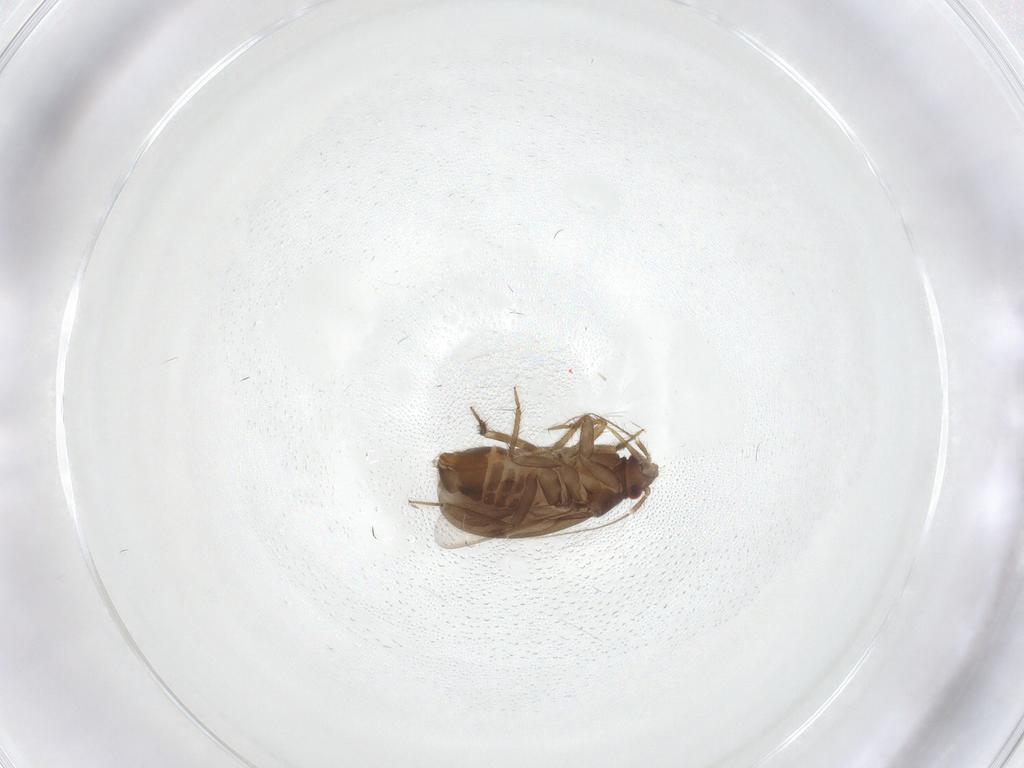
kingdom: Animalia
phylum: Arthropoda
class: Insecta
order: Hemiptera
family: Ceratocombidae
